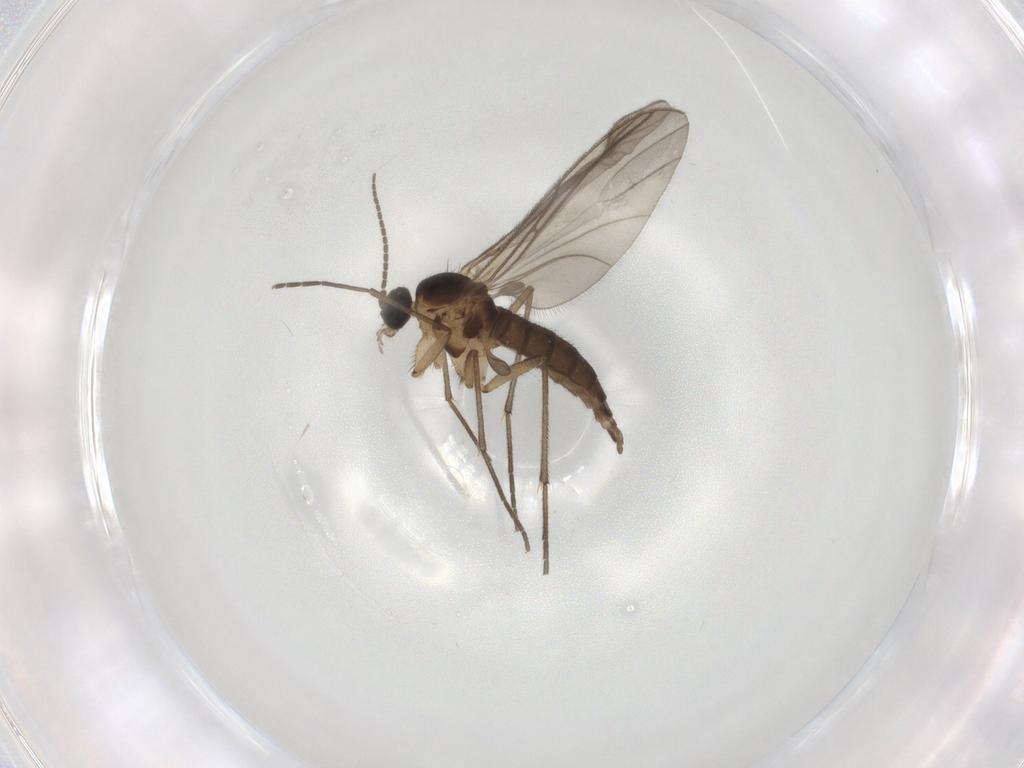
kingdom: Animalia
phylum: Arthropoda
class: Insecta
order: Diptera
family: Sciaridae
